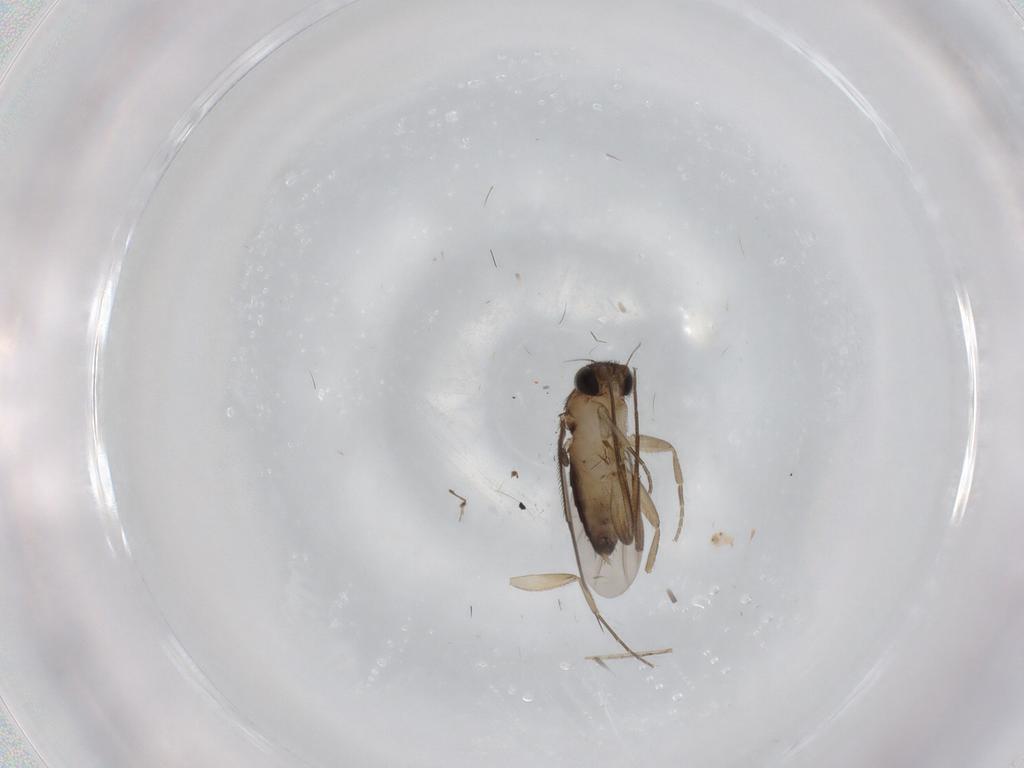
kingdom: Animalia
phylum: Arthropoda
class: Insecta
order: Diptera
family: Phoridae
